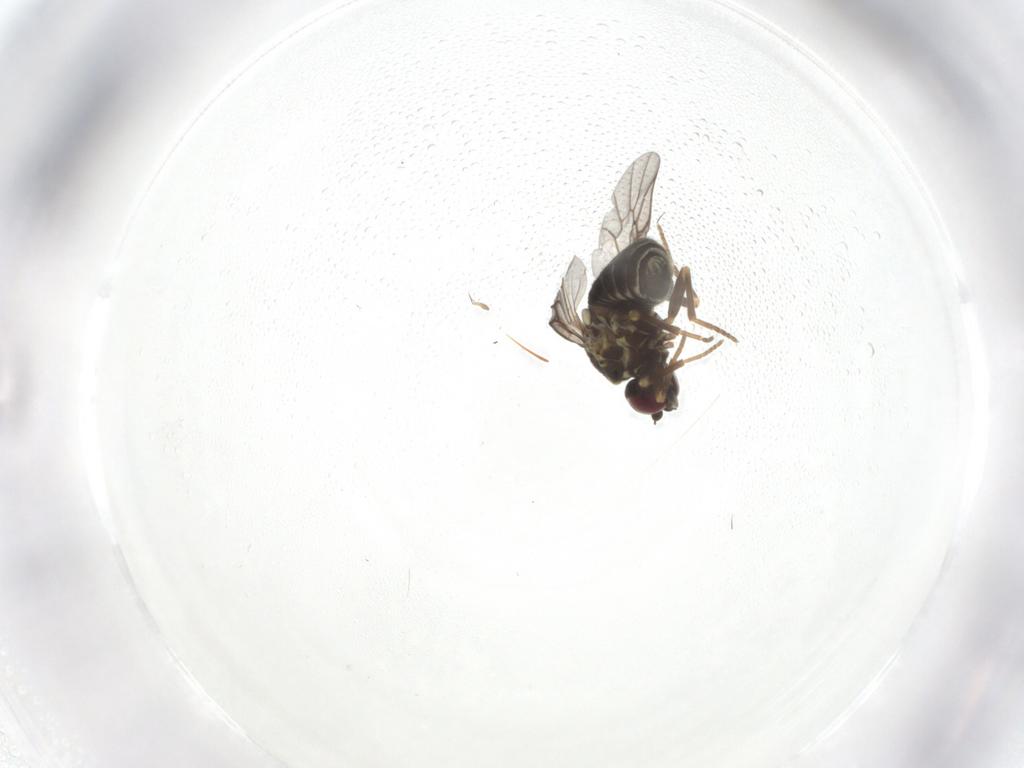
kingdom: Animalia
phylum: Arthropoda
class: Insecta
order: Diptera
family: Bombyliidae
